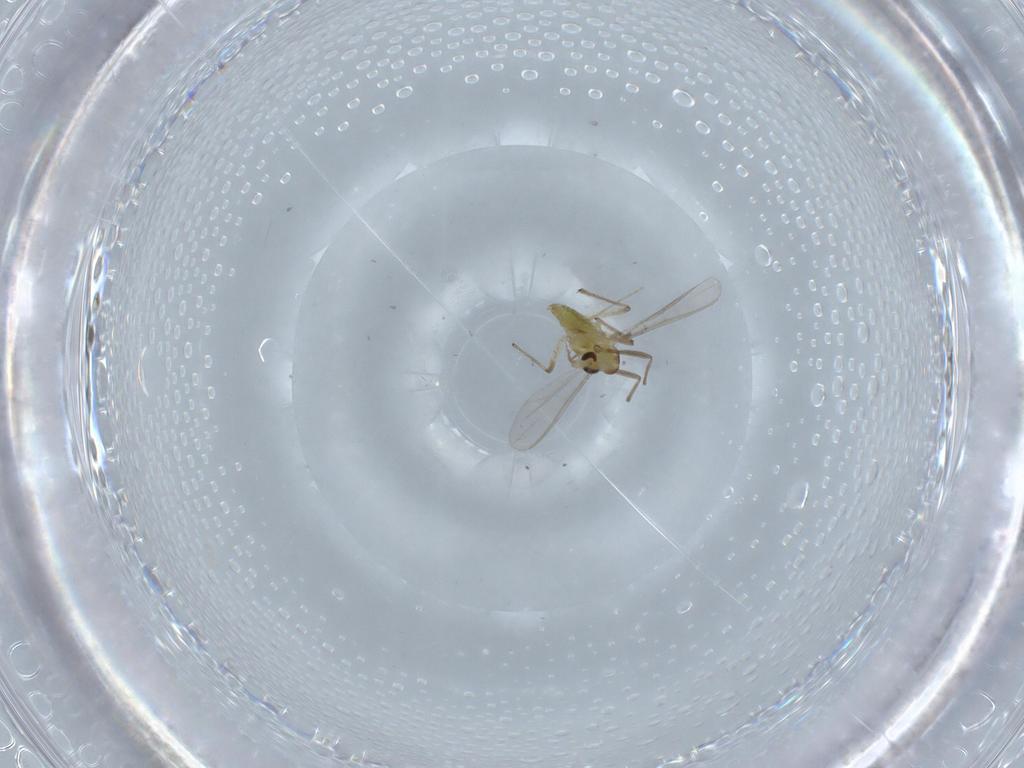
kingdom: Animalia
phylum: Arthropoda
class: Insecta
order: Diptera
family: Chironomidae
